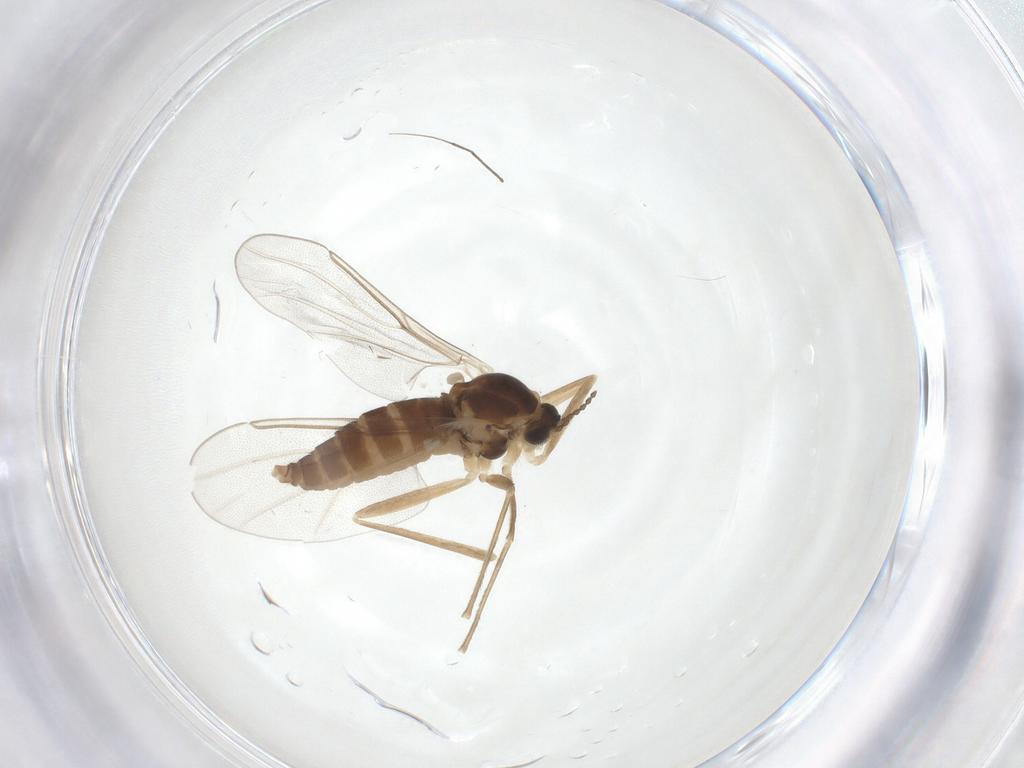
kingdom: Animalia
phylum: Arthropoda
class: Insecta
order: Diptera
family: Cecidomyiidae
